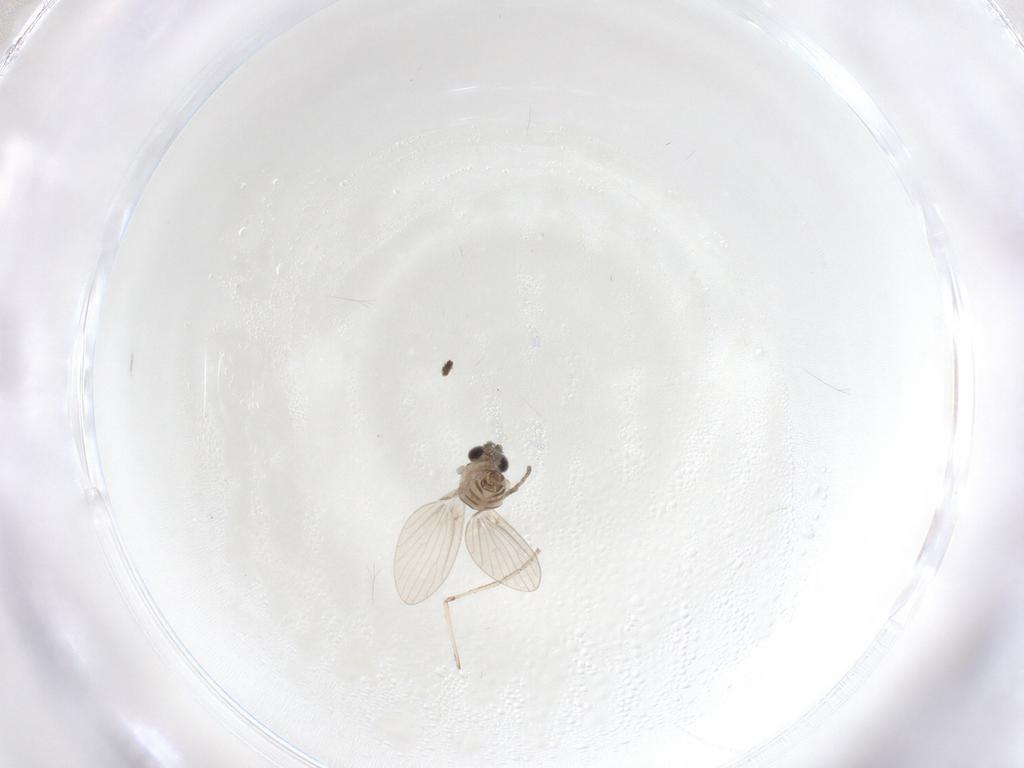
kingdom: Animalia
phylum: Arthropoda
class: Insecta
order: Diptera
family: Cecidomyiidae
